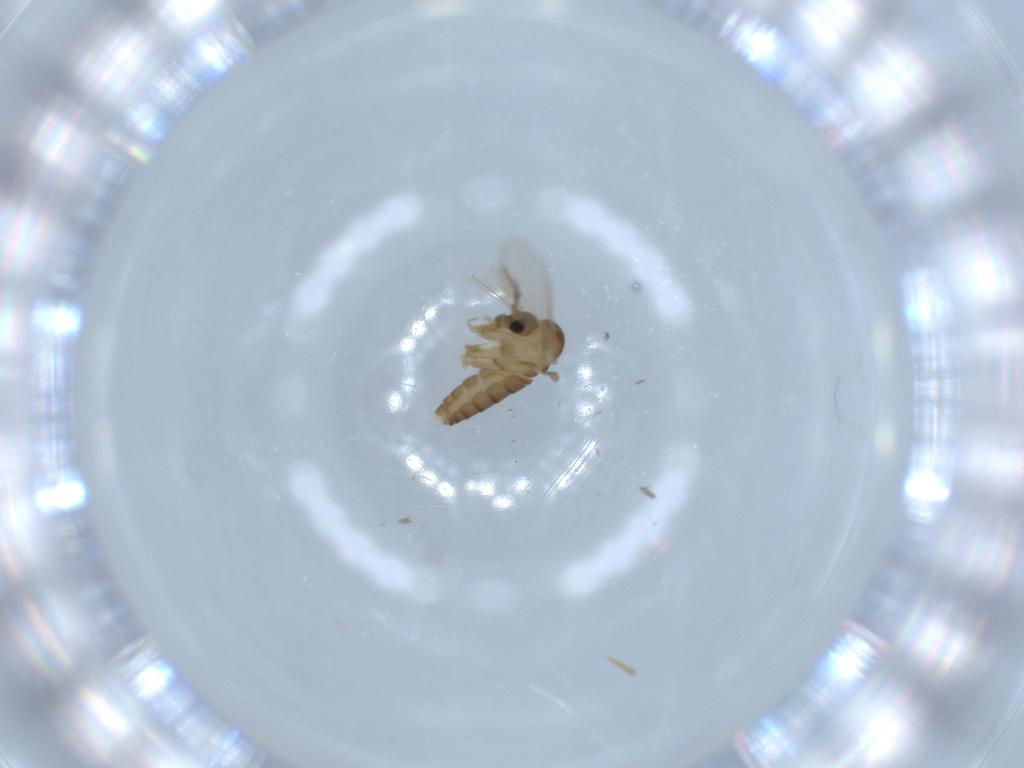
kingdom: Animalia
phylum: Arthropoda
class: Insecta
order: Diptera
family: Psychodidae
